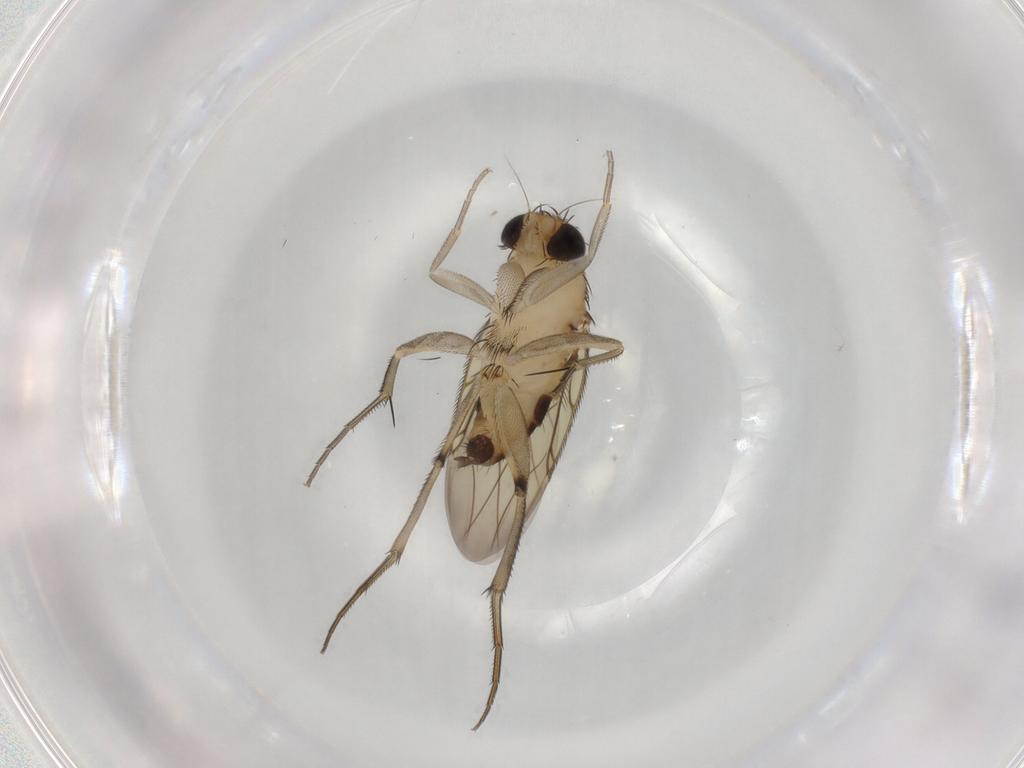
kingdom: Animalia
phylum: Arthropoda
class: Insecta
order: Diptera
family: Phoridae
